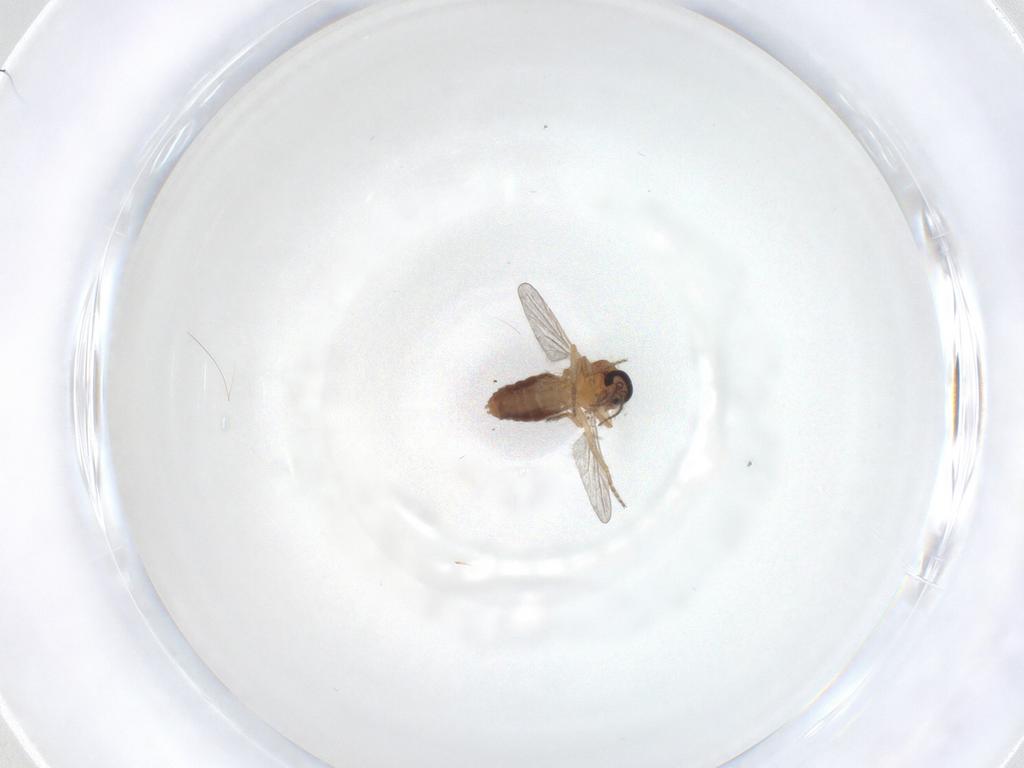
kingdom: Animalia
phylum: Arthropoda
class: Insecta
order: Diptera
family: Ceratopogonidae
